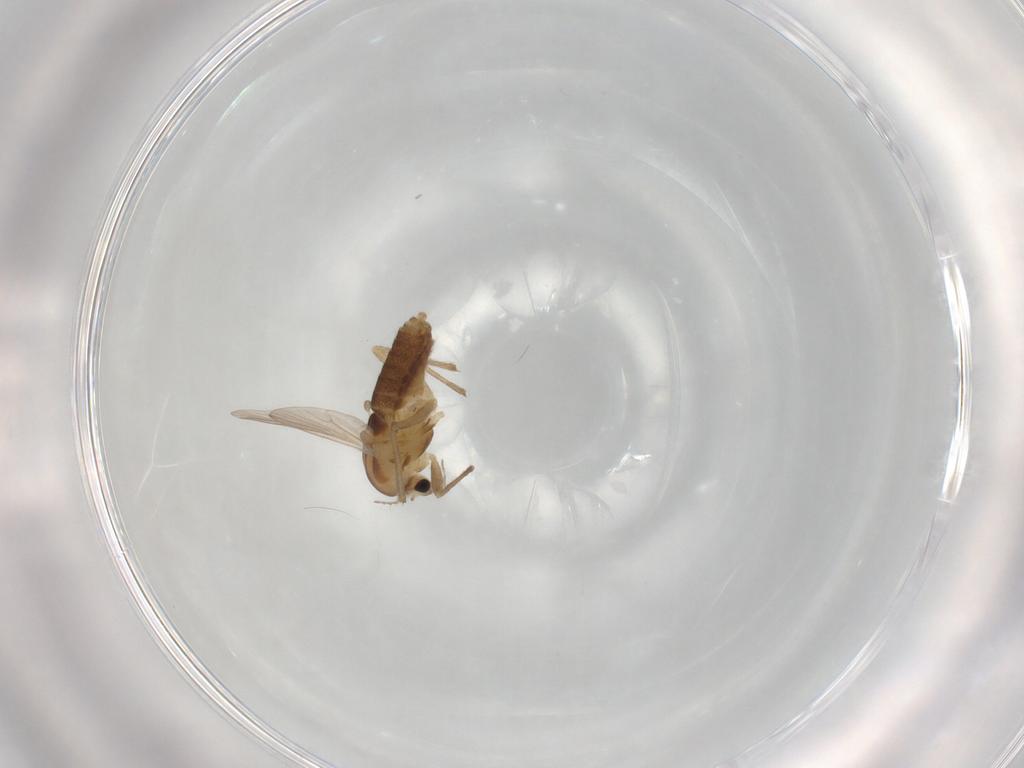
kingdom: Animalia
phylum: Arthropoda
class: Insecta
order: Diptera
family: Chironomidae
